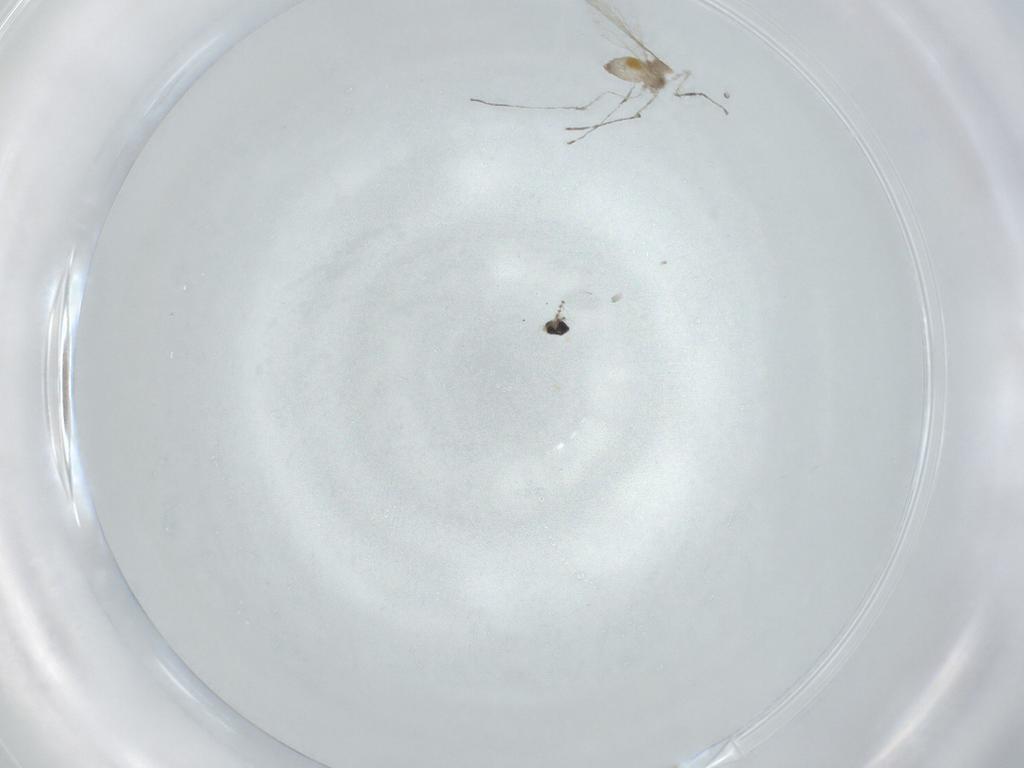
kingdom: Animalia
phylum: Arthropoda
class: Insecta
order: Diptera
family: Cecidomyiidae
